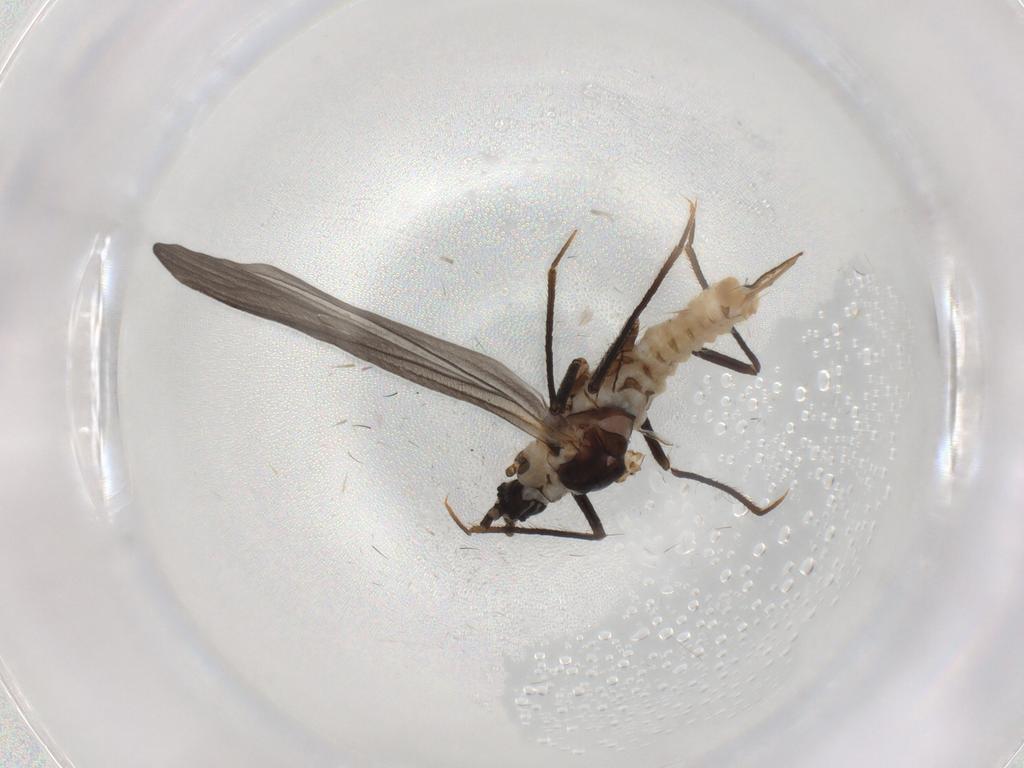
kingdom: Animalia
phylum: Arthropoda
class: Insecta
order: Hemiptera
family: Putoidae
